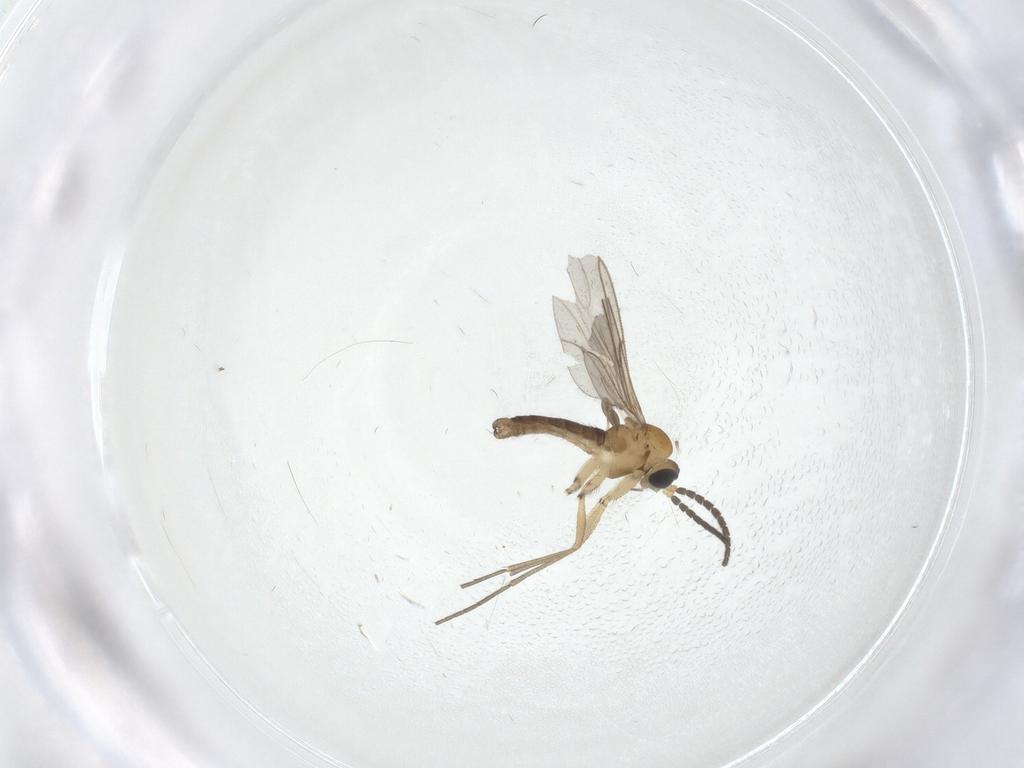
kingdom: Animalia
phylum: Arthropoda
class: Insecta
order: Diptera
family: Sciaridae
